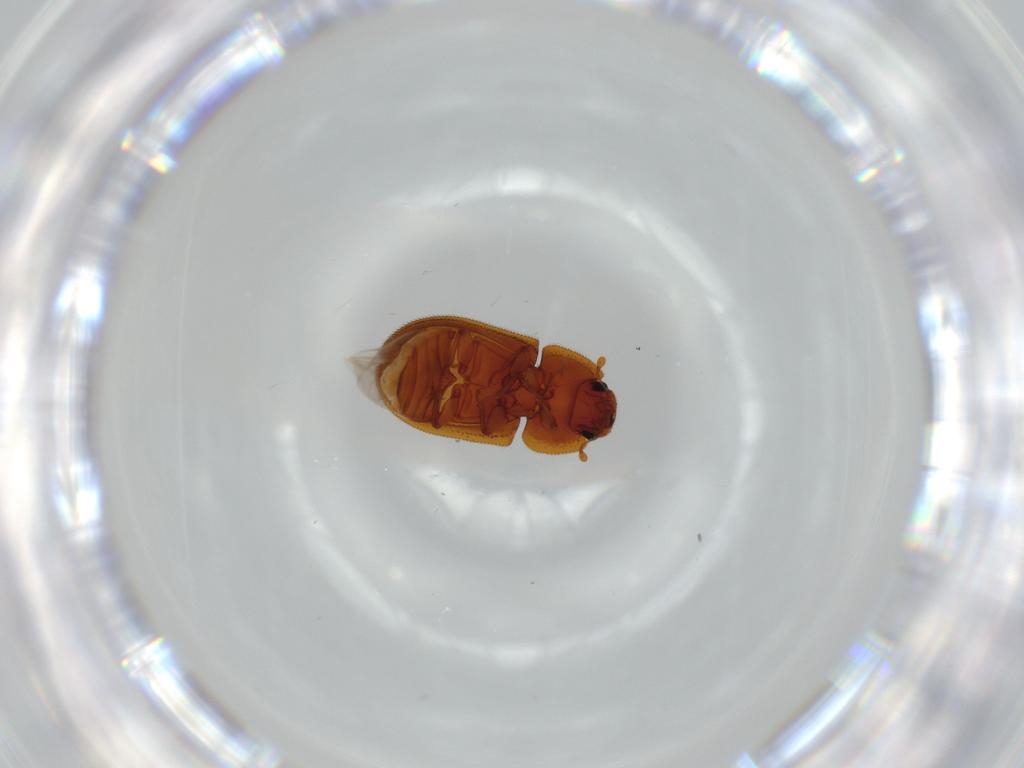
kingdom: Animalia
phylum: Arthropoda
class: Insecta
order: Coleoptera
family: Zopheridae
